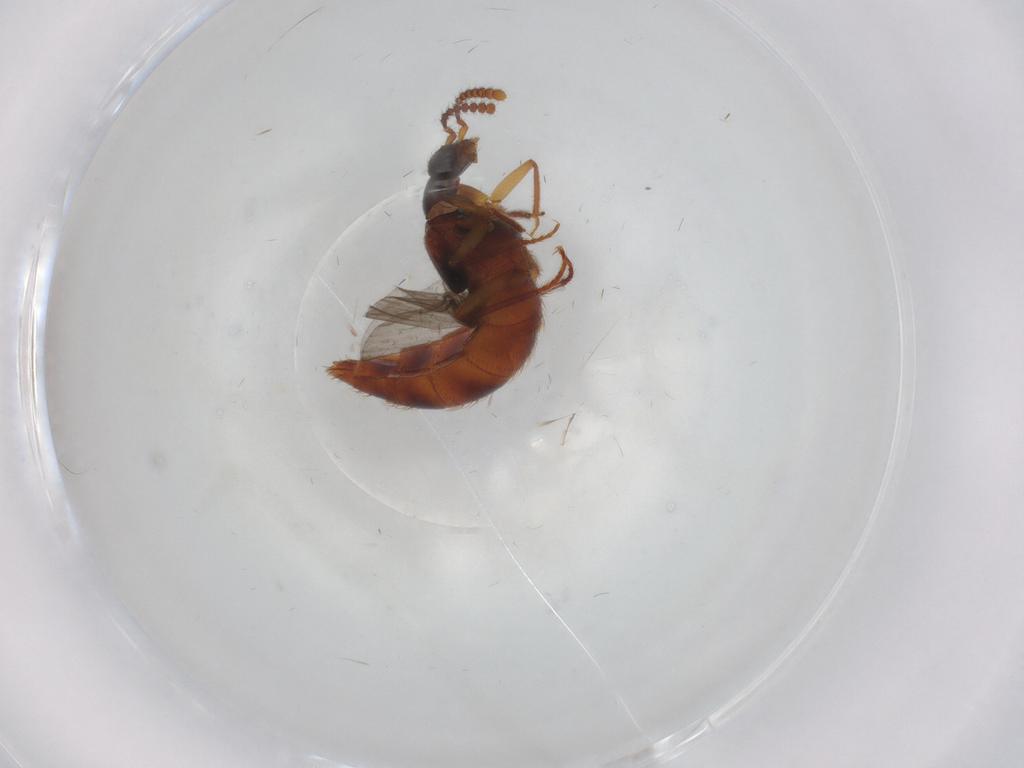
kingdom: Animalia
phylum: Arthropoda
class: Insecta
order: Coleoptera
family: Staphylinidae
